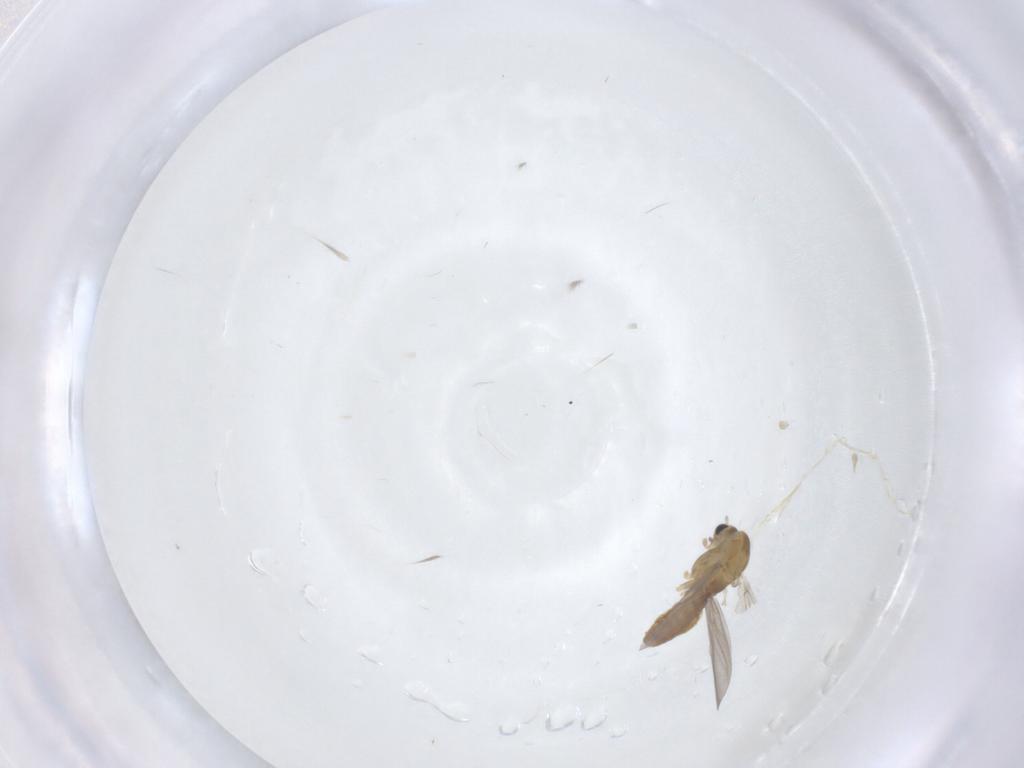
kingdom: Animalia
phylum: Arthropoda
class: Insecta
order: Diptera
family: Chironomidae
